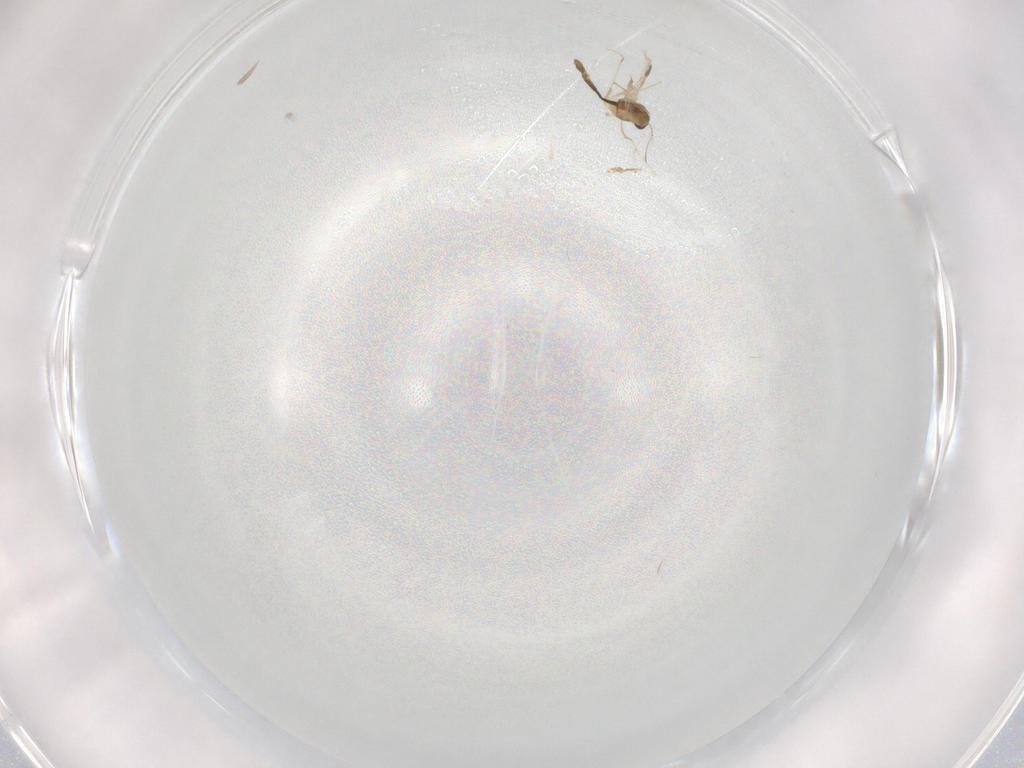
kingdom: Animalia
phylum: Arthropoda
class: Insecta
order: Diptera
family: Chironomidae
